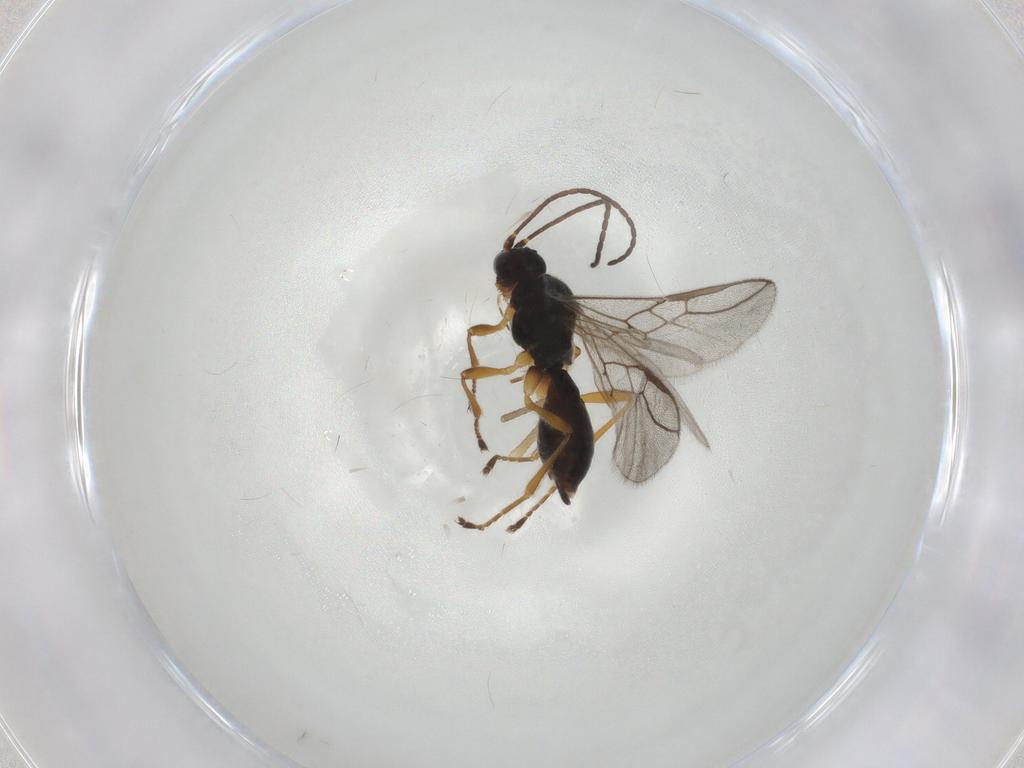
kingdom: Animalia
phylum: Arthropoda
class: Insecta
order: Hymenoptera
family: Braconidae
